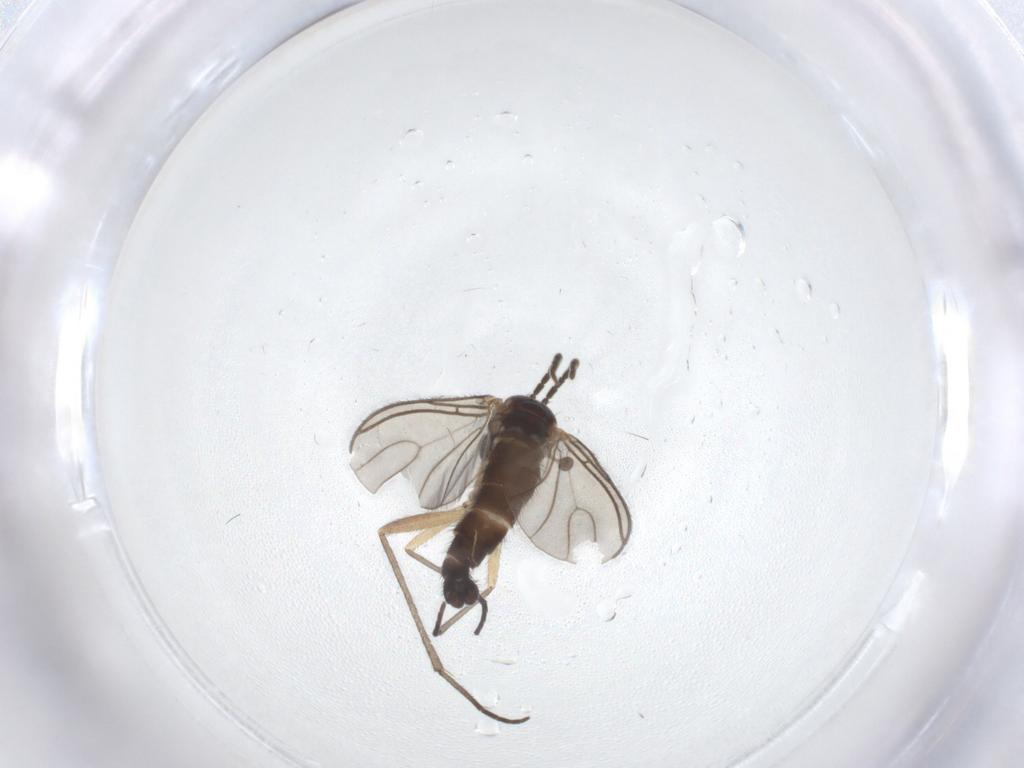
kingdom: Animalia
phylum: Arthropoda
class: Insecta
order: Diptera
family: Sciaridae
